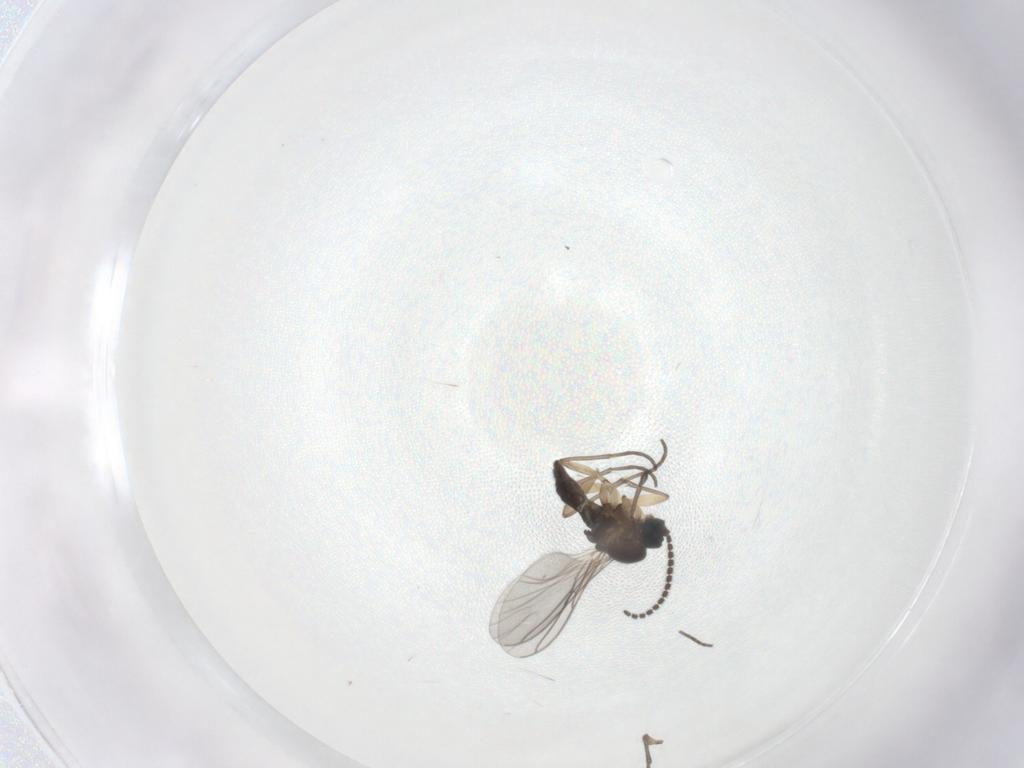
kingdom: Animalia
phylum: Arthropoda
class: Insecta
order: Diptera
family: Sciaridae
